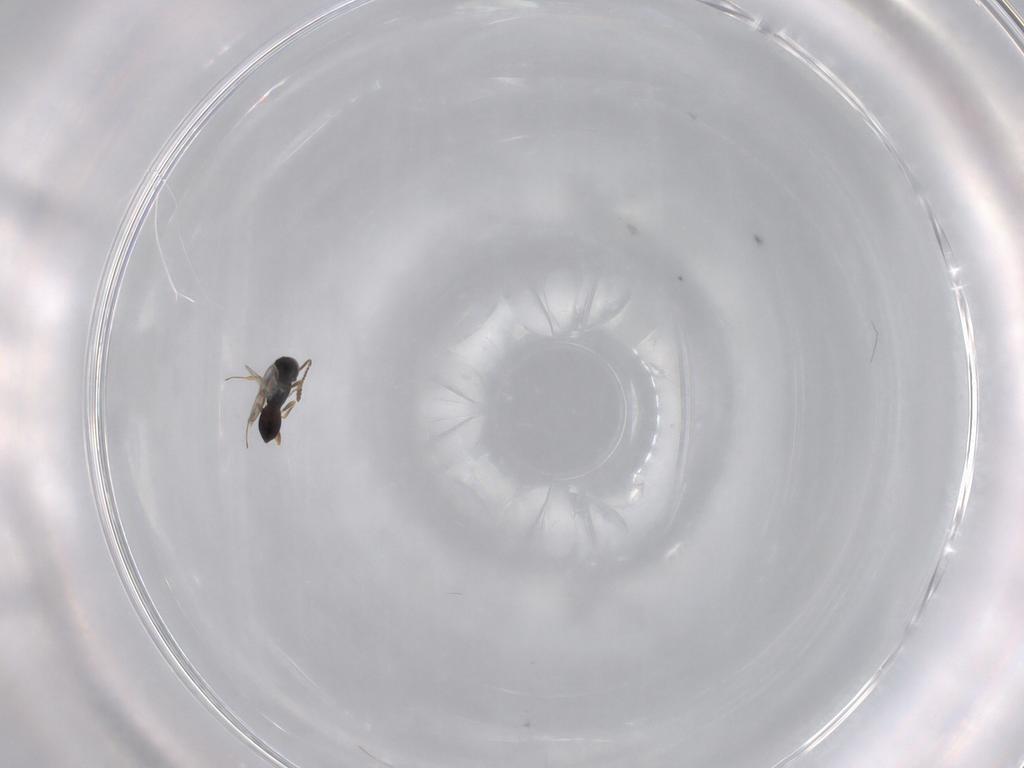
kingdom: Animalia
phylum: Arthropoda
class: Insecta
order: Hymenoptera
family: Scelionidae
